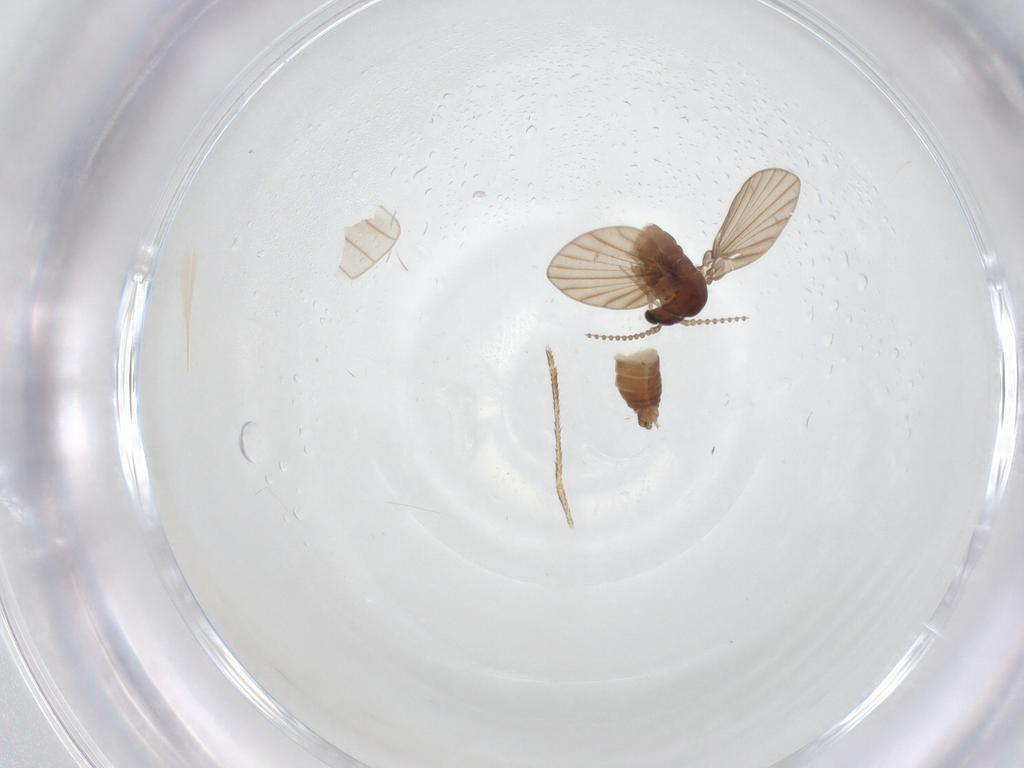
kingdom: Animalia
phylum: Arthropoda
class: Insecta
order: Diptera
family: Psychodidae
